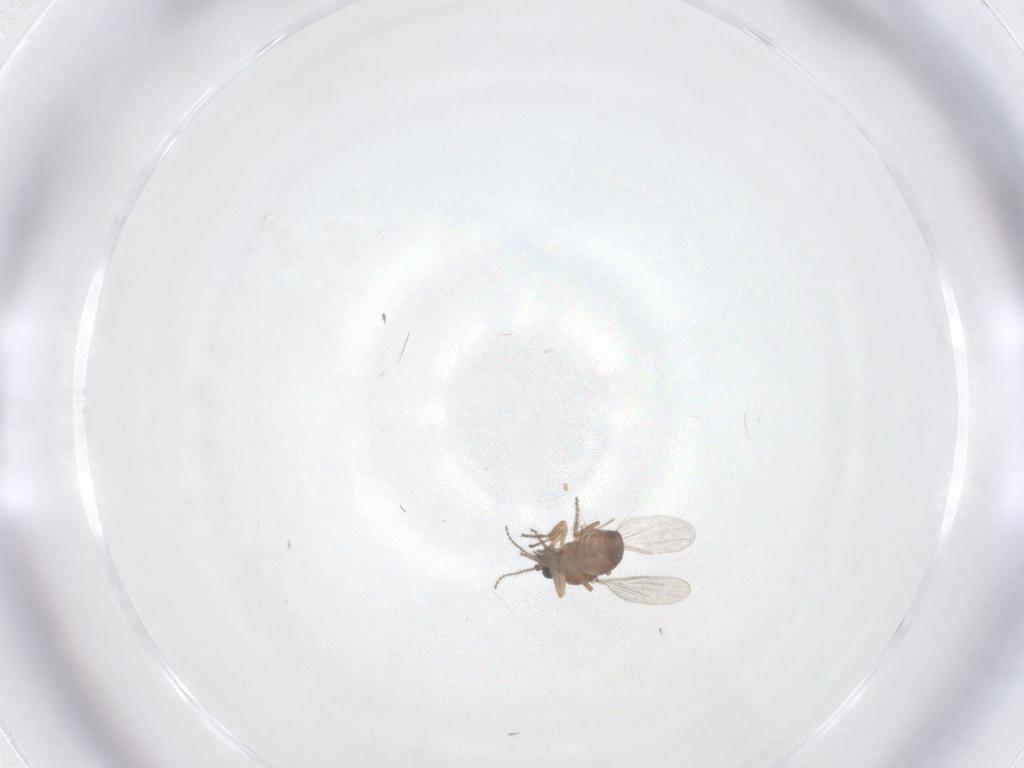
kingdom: Animalia
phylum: Arthropoda
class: Insecta
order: Diptera
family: Ceratopogonidae
